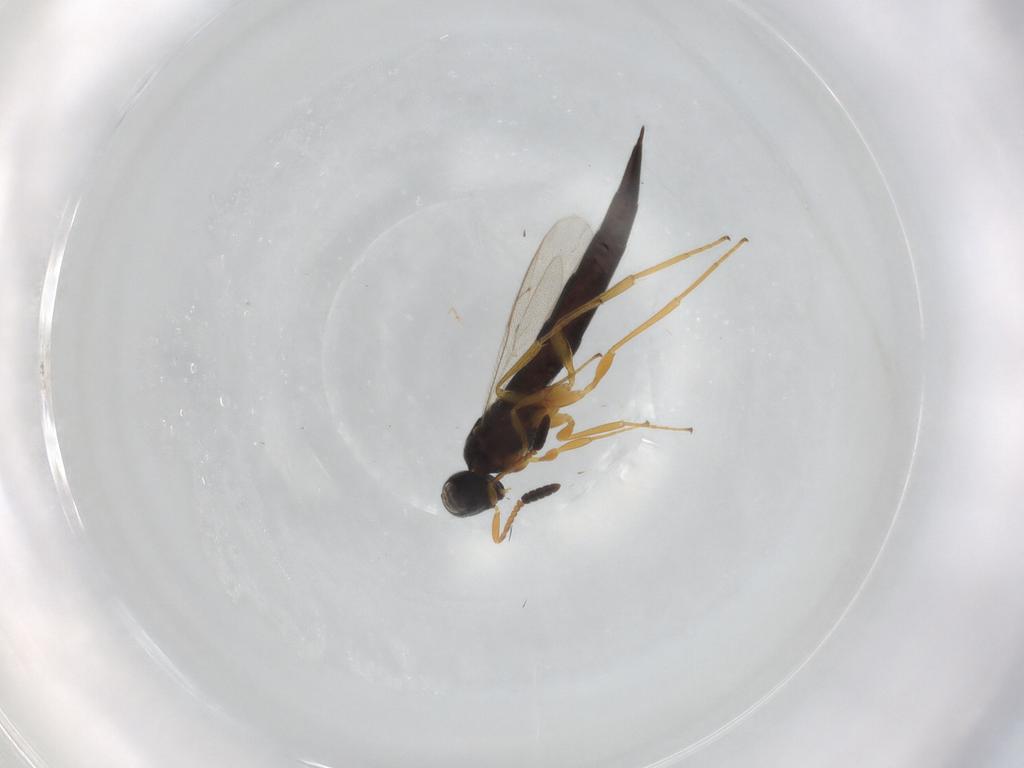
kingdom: Animalia
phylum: Arthropoda
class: Insecta
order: Hymenoptera
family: Scelionidae
